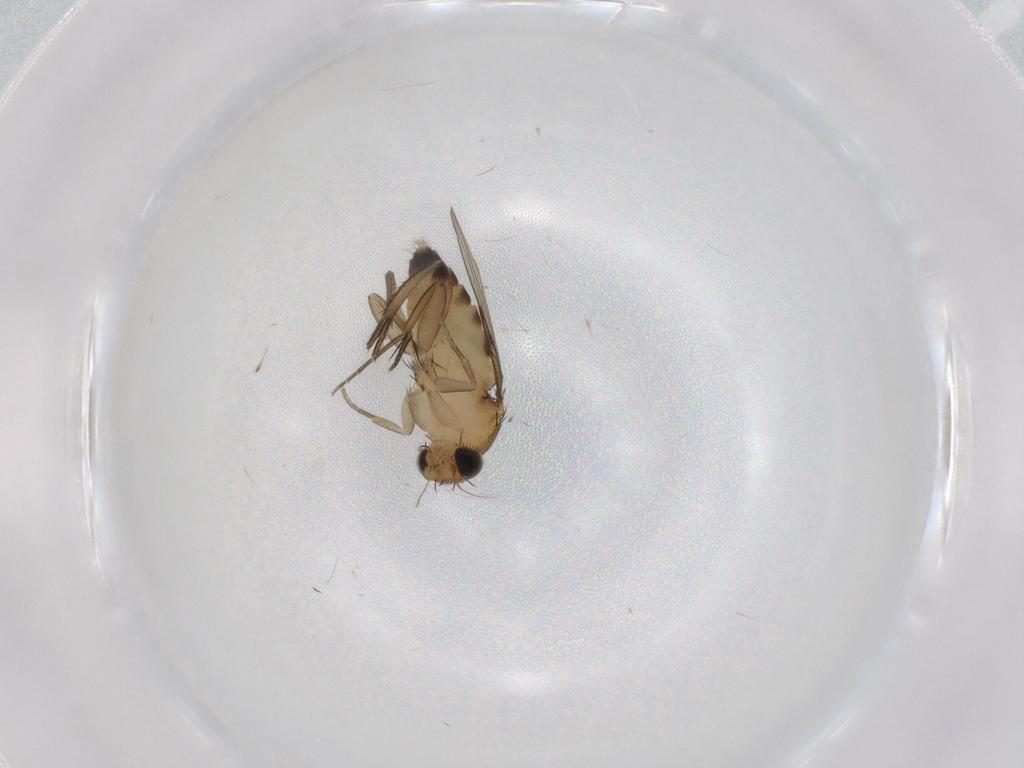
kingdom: Animalia
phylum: Arthropoda
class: Insecta
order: Diptera
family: Phoridae
